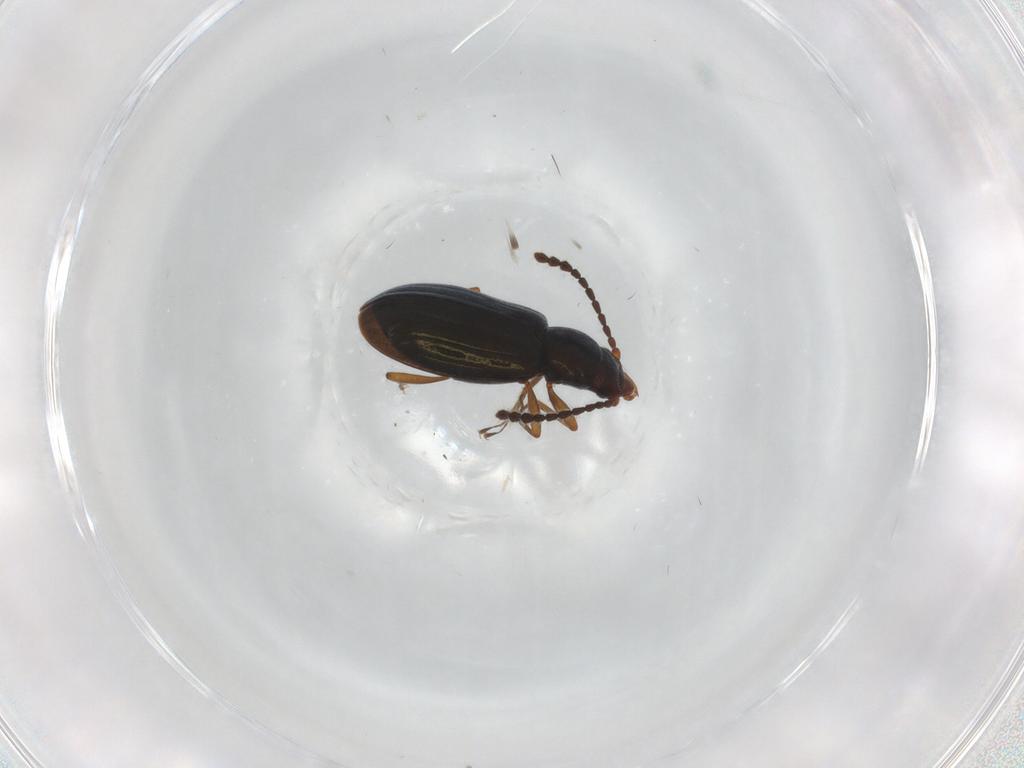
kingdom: Animalia
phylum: Arthropoda
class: Insecta
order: Coleoptera
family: Laemophloeidae
